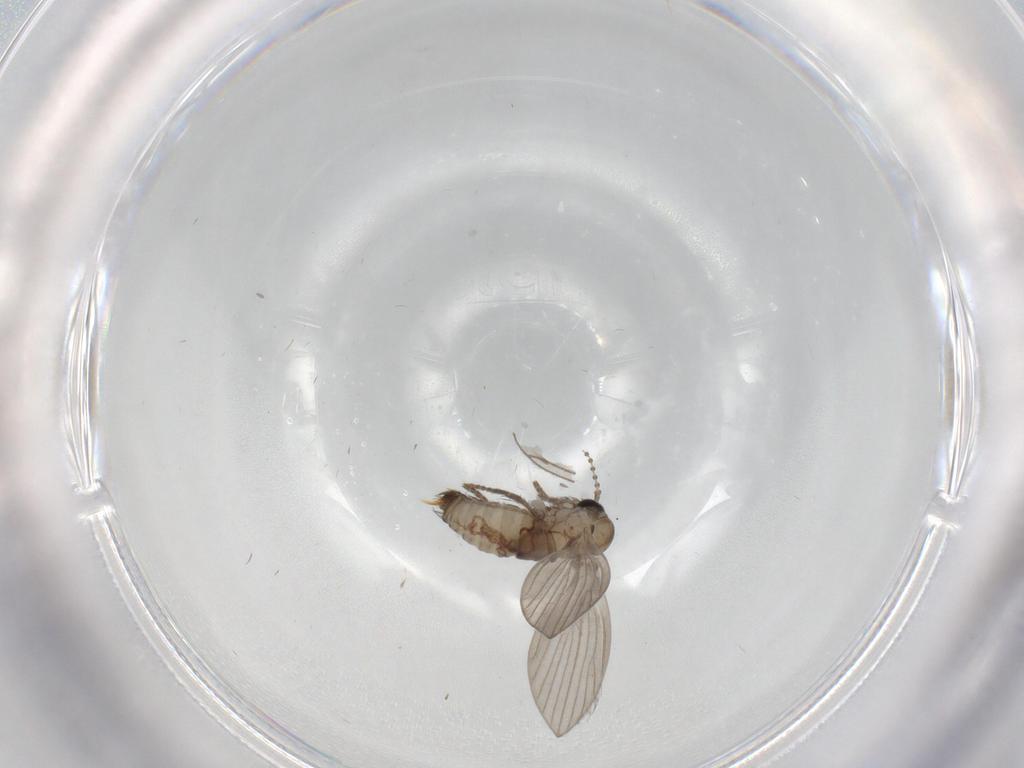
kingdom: Animalia
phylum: Arthropoda
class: Insecta
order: Diptera
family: Psychodidae
